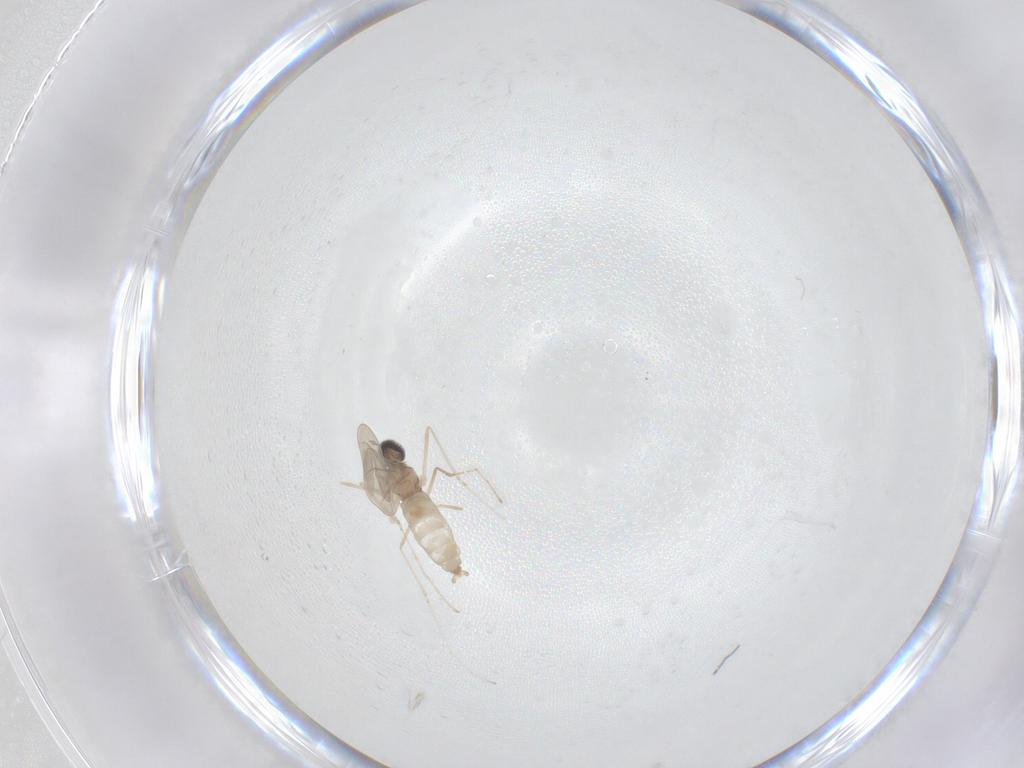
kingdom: Animalia
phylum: Arthropoda
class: Insecta
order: Diptera
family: Cecidomyiidae
